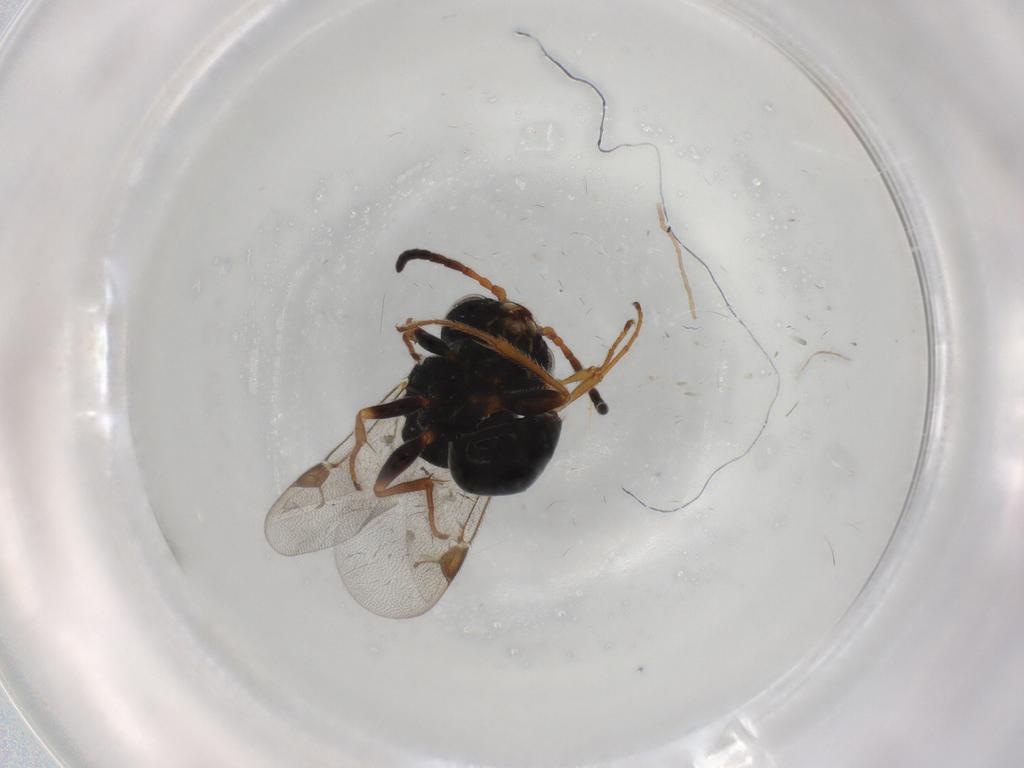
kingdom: Animalia
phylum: Arthropoda
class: Insecta
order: Hymenoptera
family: Dryinidae
